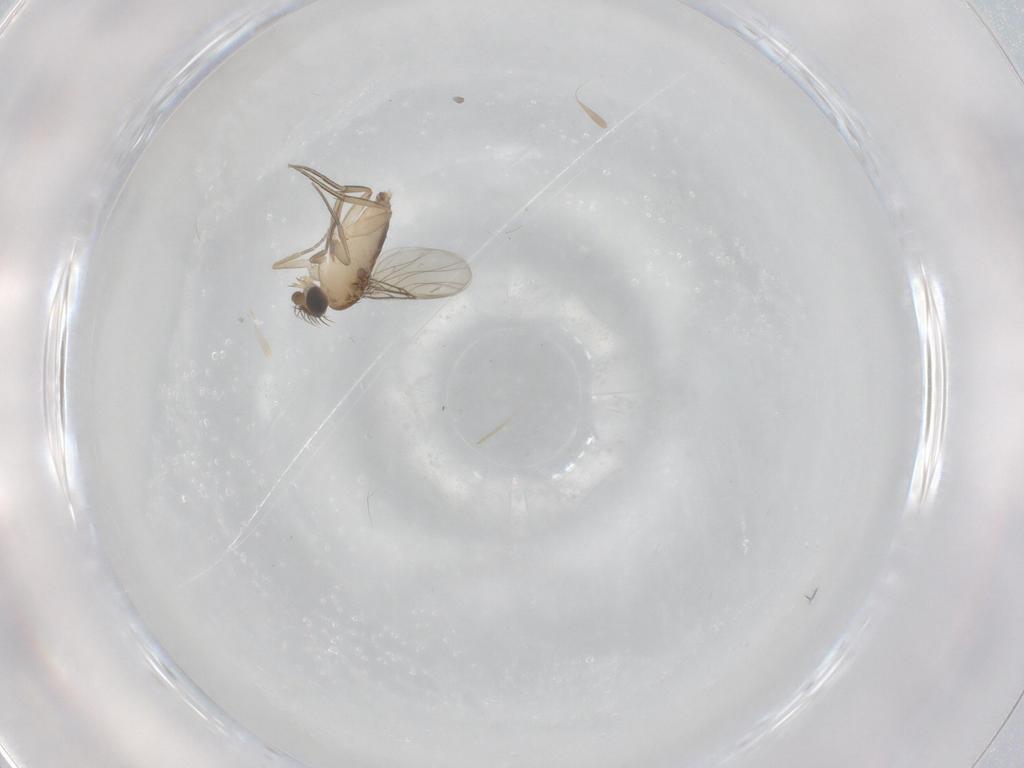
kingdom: Animalia
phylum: Arthropoda
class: Insecta
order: Diptera
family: Phoridae
